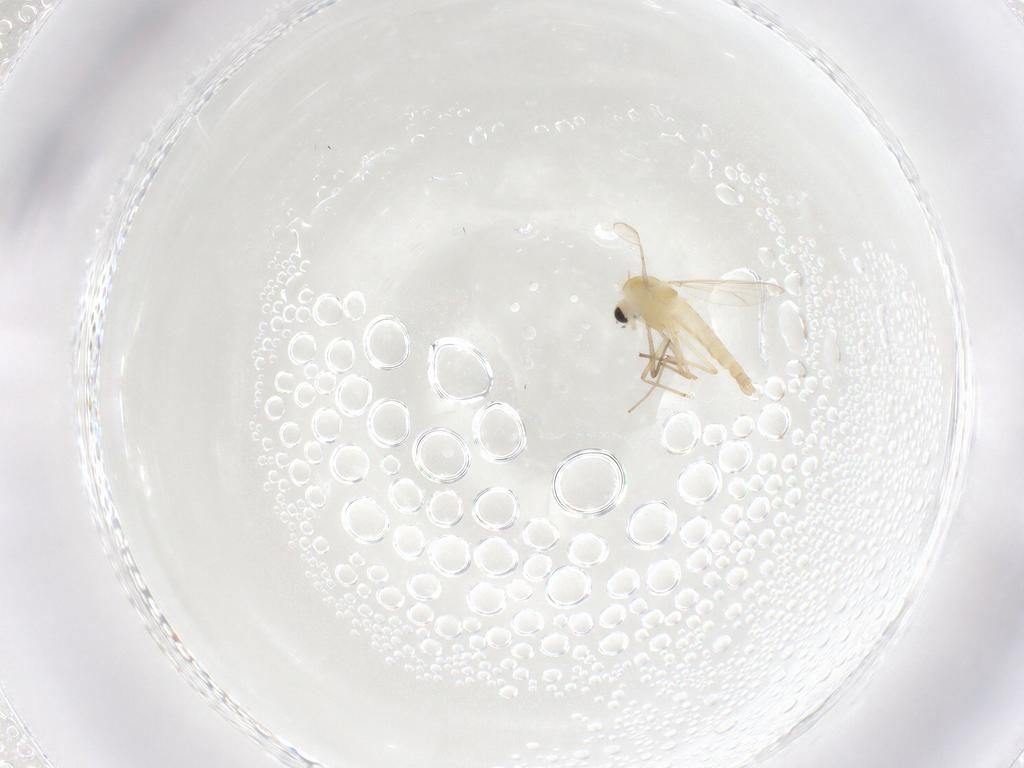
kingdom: Animalia
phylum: Arthropoda
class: Insecta
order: Diptera
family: Chironomidae
